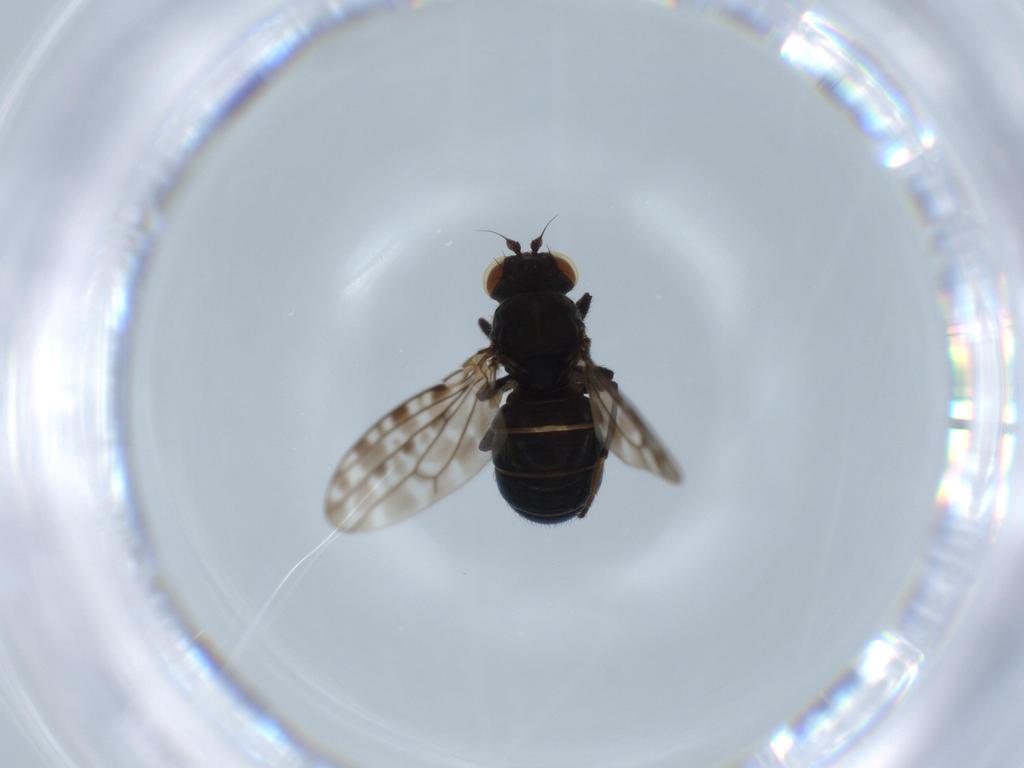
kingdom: Animalia
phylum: Arthropoda
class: Insecta
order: Diptera
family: Ephydridae
